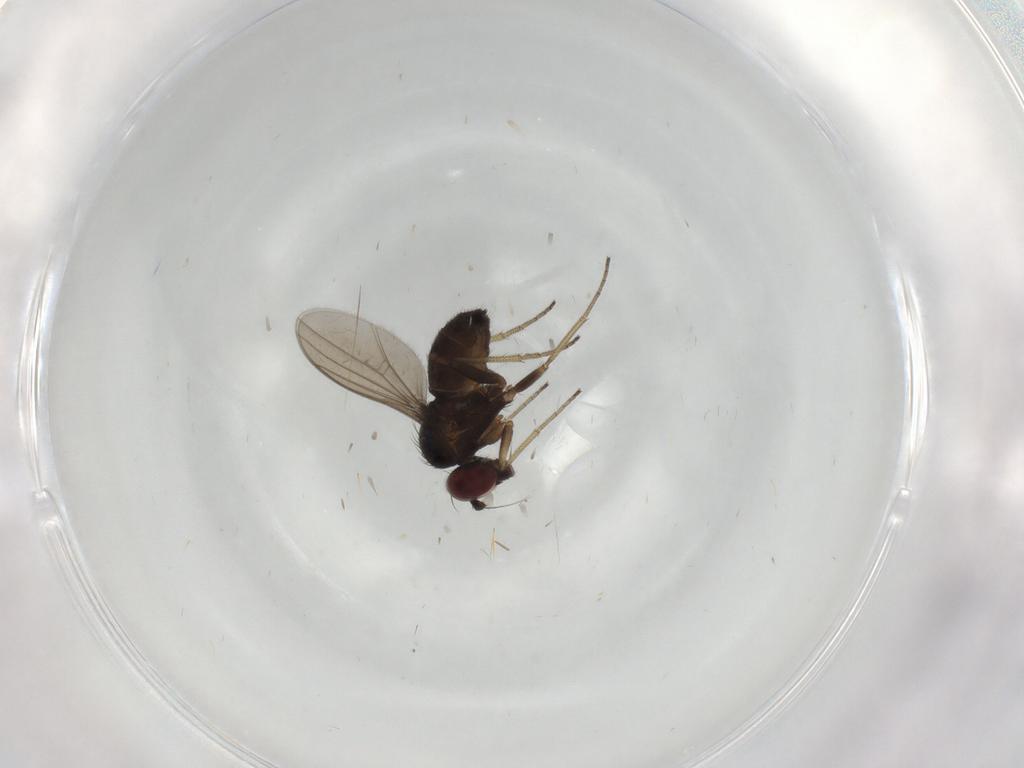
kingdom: Animalia
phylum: Arthropoda
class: Insecta
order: Diptera
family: Dolichopodidae
